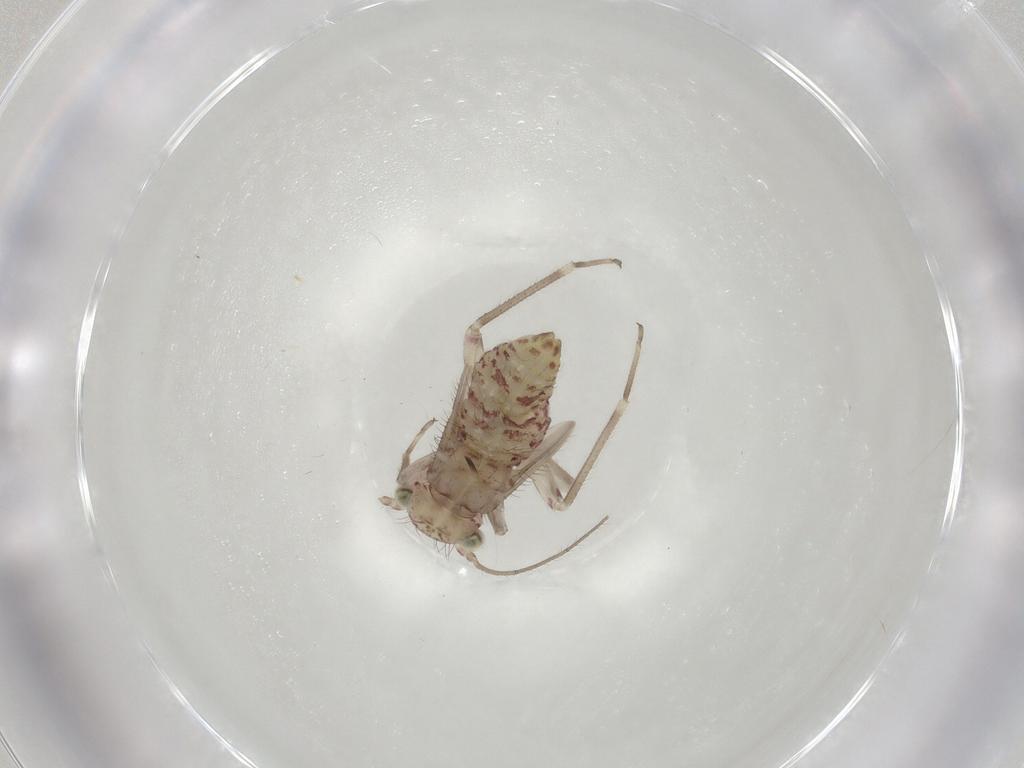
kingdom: Animalia
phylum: Arthropoda
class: Insecta
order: Psocodea
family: Philotarsidae
